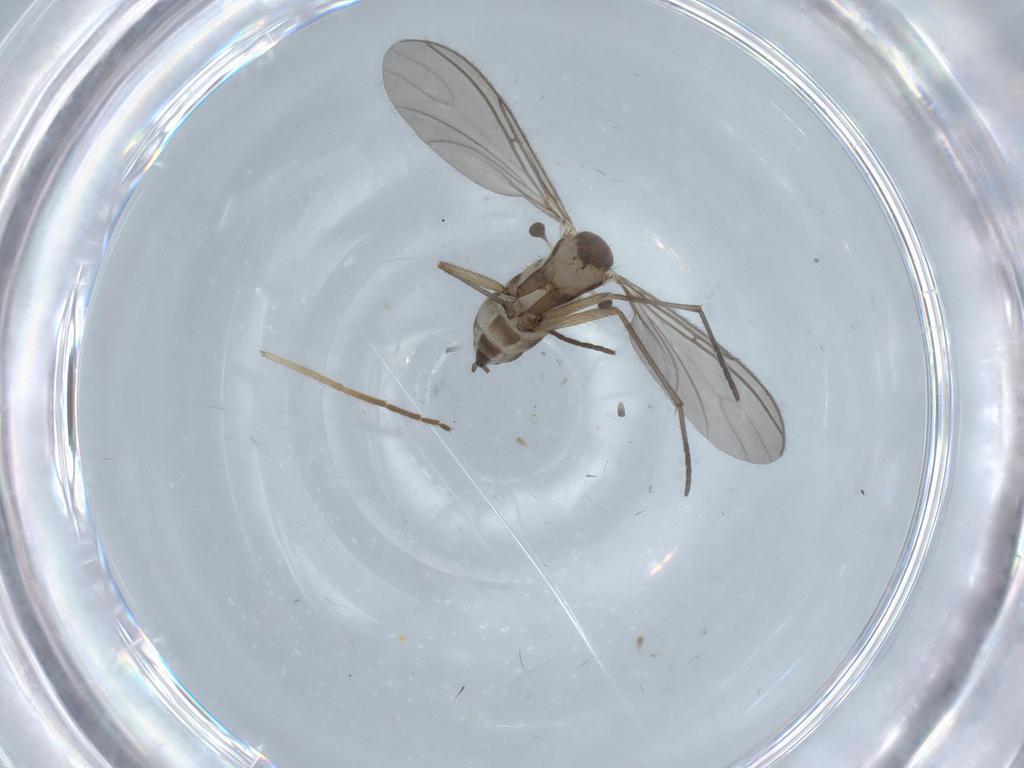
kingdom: Animalia
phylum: Arthropoda
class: Insecta
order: Diptera
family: Sciaridae
